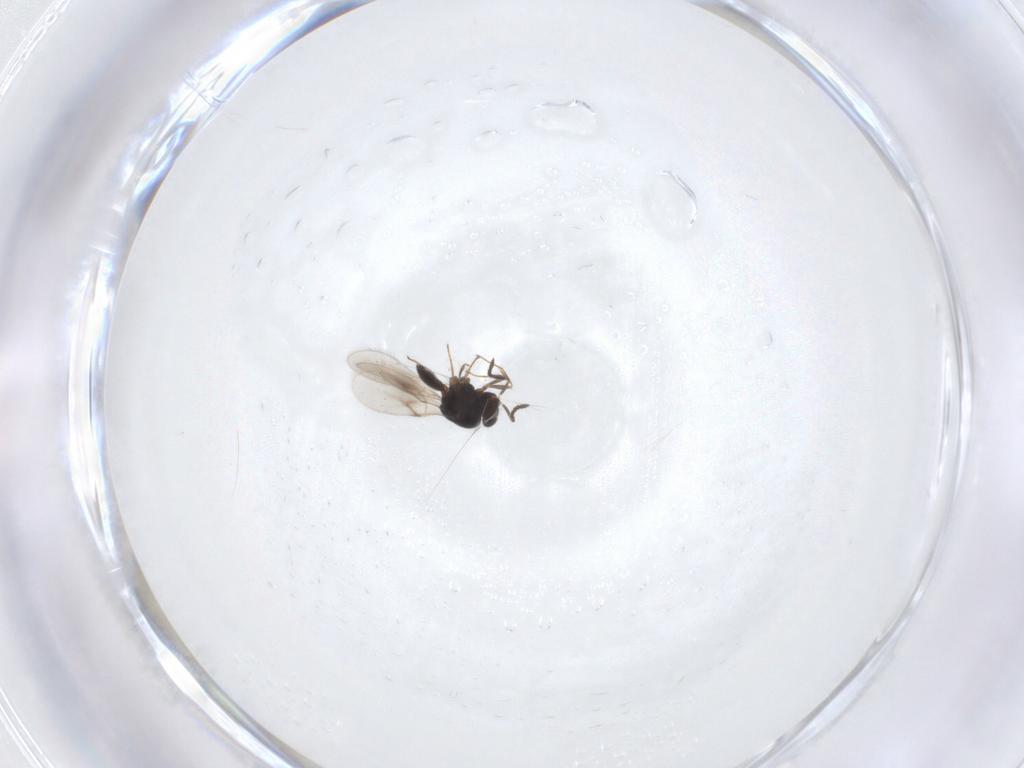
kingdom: Animalia
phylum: Arthropoda
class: Insecta
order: Hymenoptera
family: Scelionidae
